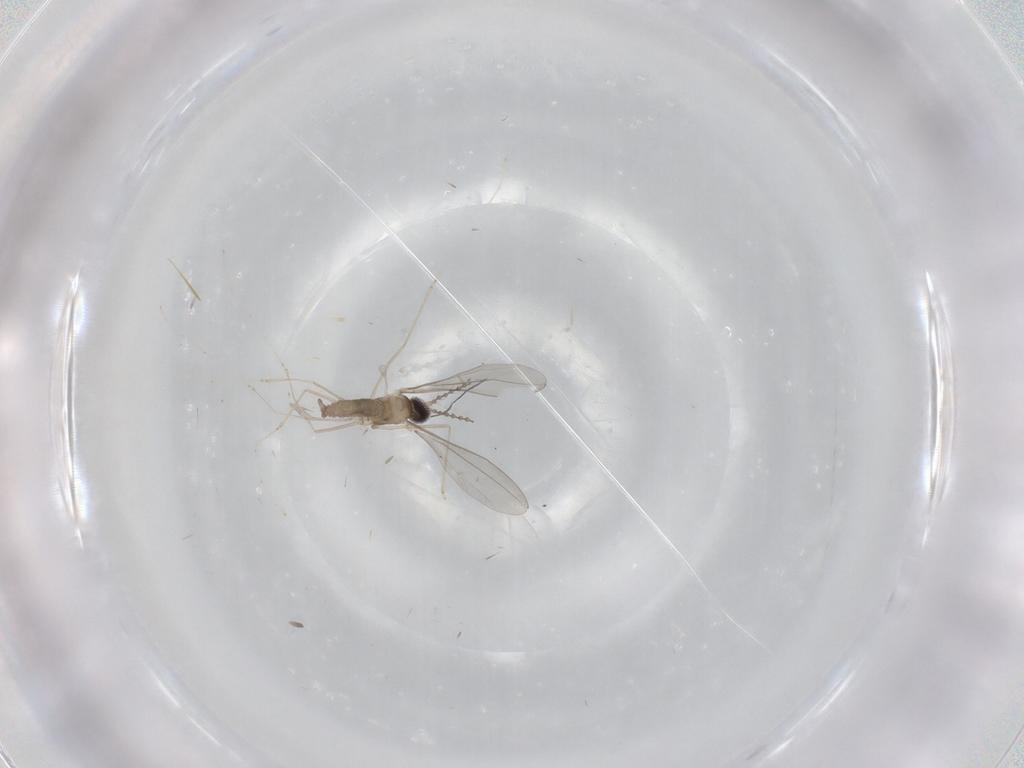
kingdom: Animalia
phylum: Arthropoda
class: Insecta
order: Diptera
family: Cecidomyiidae
